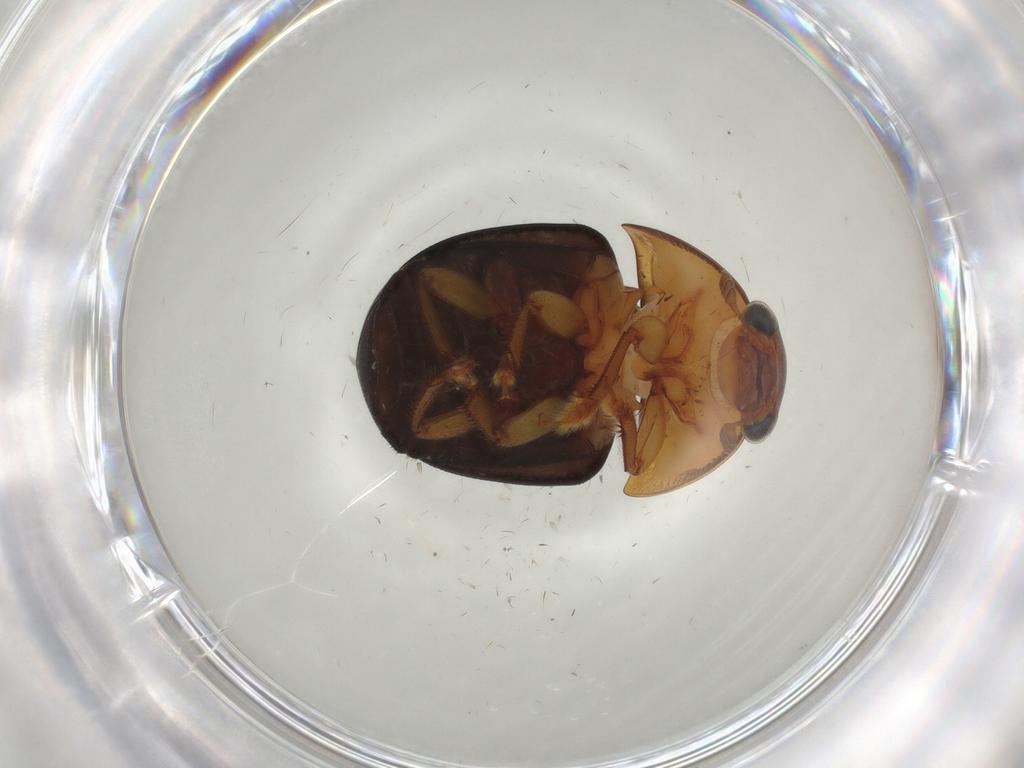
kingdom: Animalia
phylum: Arthropoda
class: Insecta
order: Coleoptera
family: Nitidulidae
